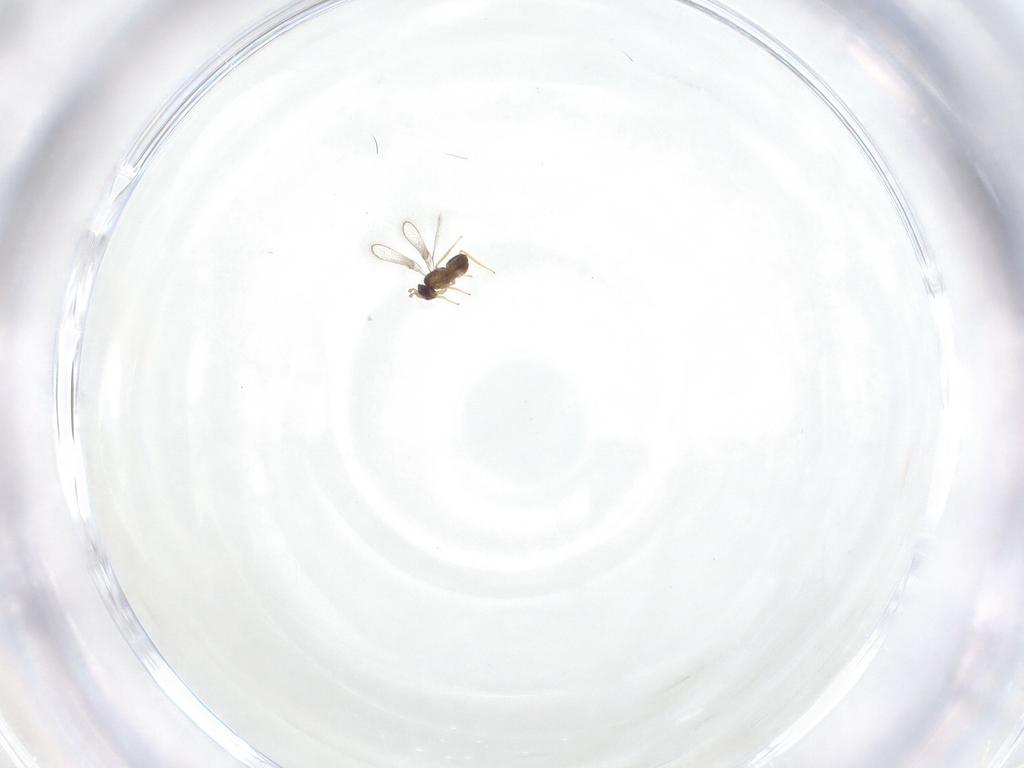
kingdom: Animalia
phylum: Arthropoda
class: Insecta
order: Hymenoptera
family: Mymaridae
